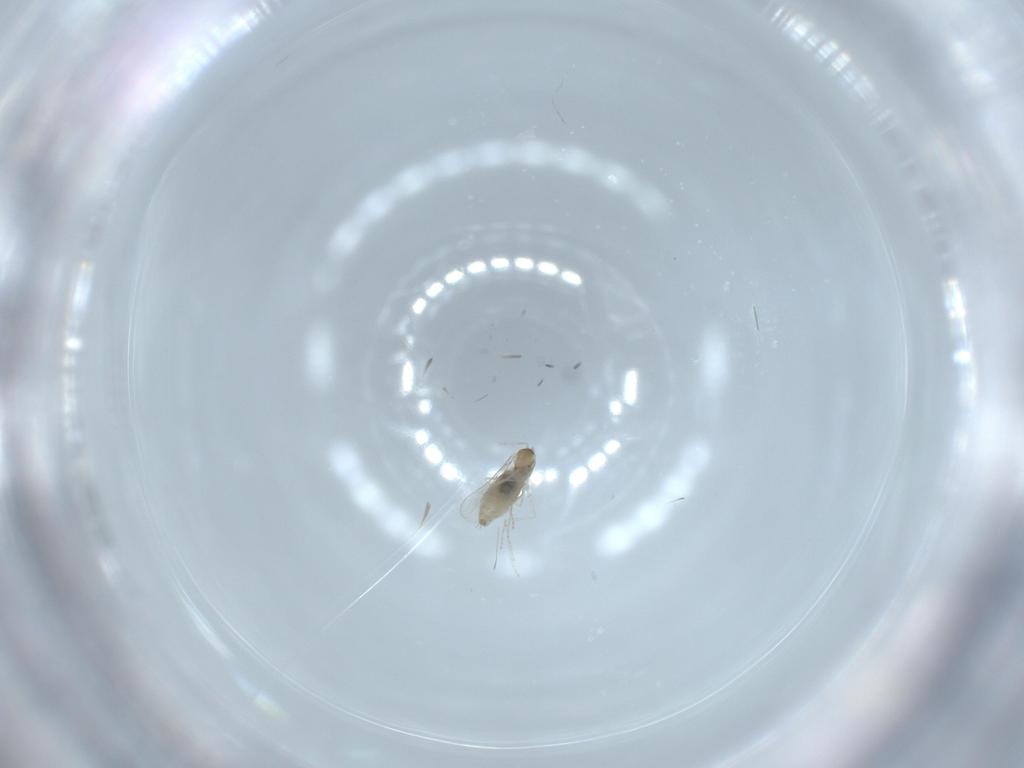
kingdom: Animalia
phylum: Arthropoda
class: Insecta
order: Diptera
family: Cecidomyiidae
